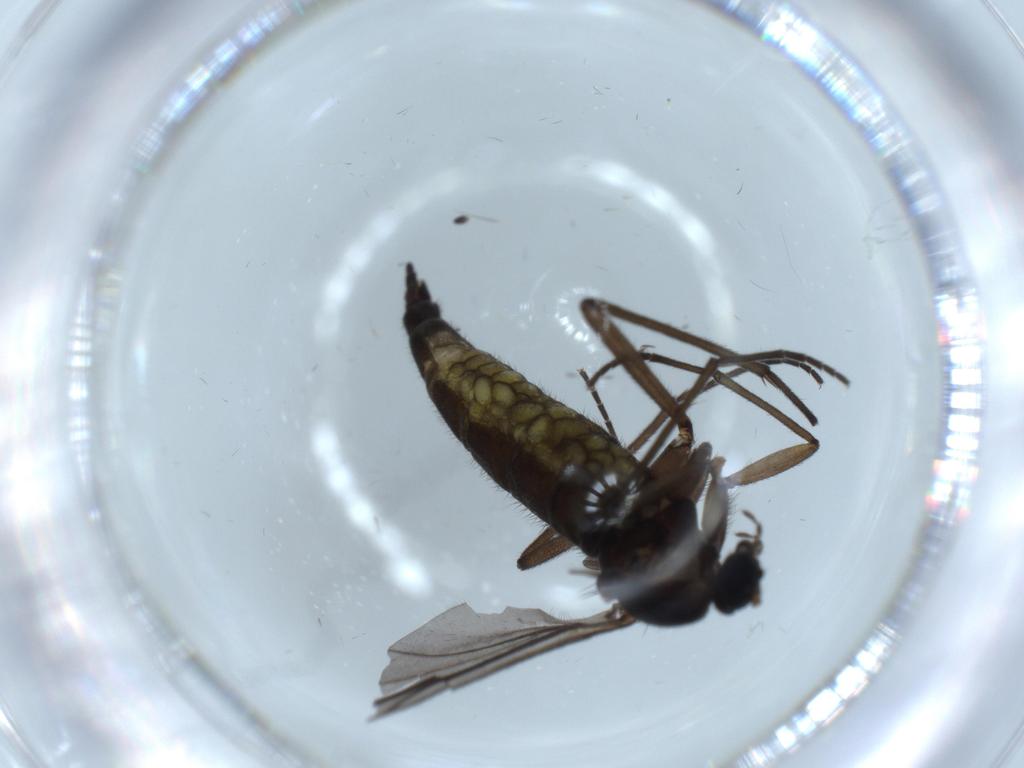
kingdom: Animalia
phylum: Arthropoda
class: Insecta
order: Diptera
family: Sciaridae
